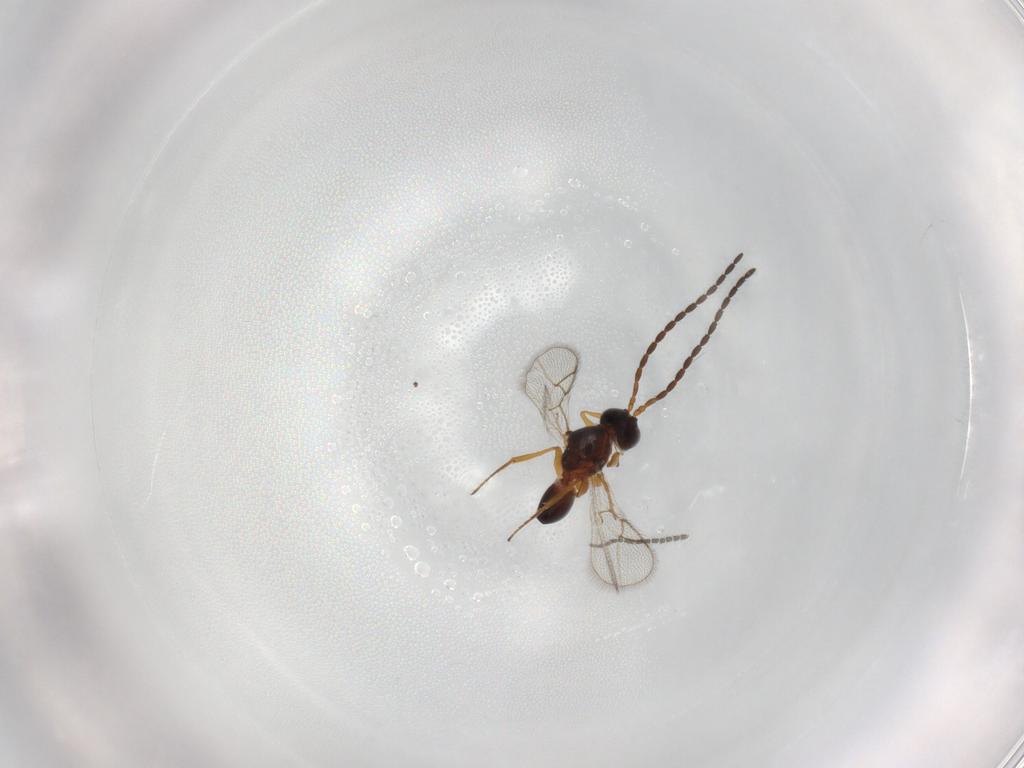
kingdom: Animalia
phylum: Arthropoda
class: Insecta
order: Hymenoptera
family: Figitidae
